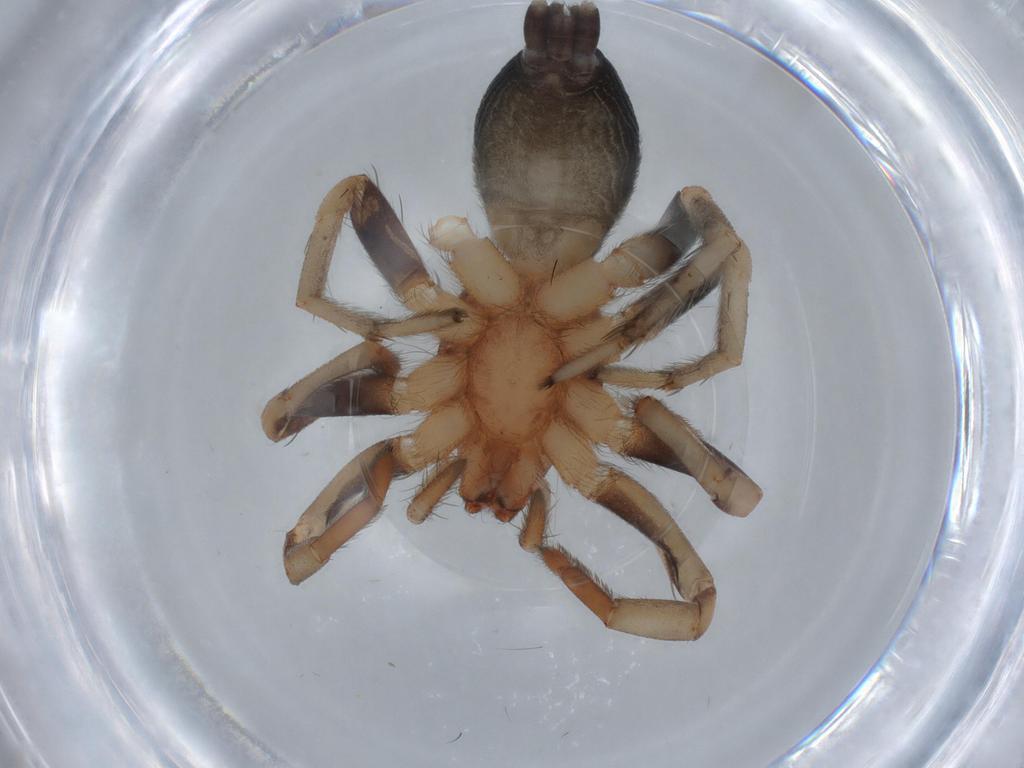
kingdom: Animalia
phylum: Arthropoda
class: Arachnida
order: Araneae
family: Gnaphosidae
